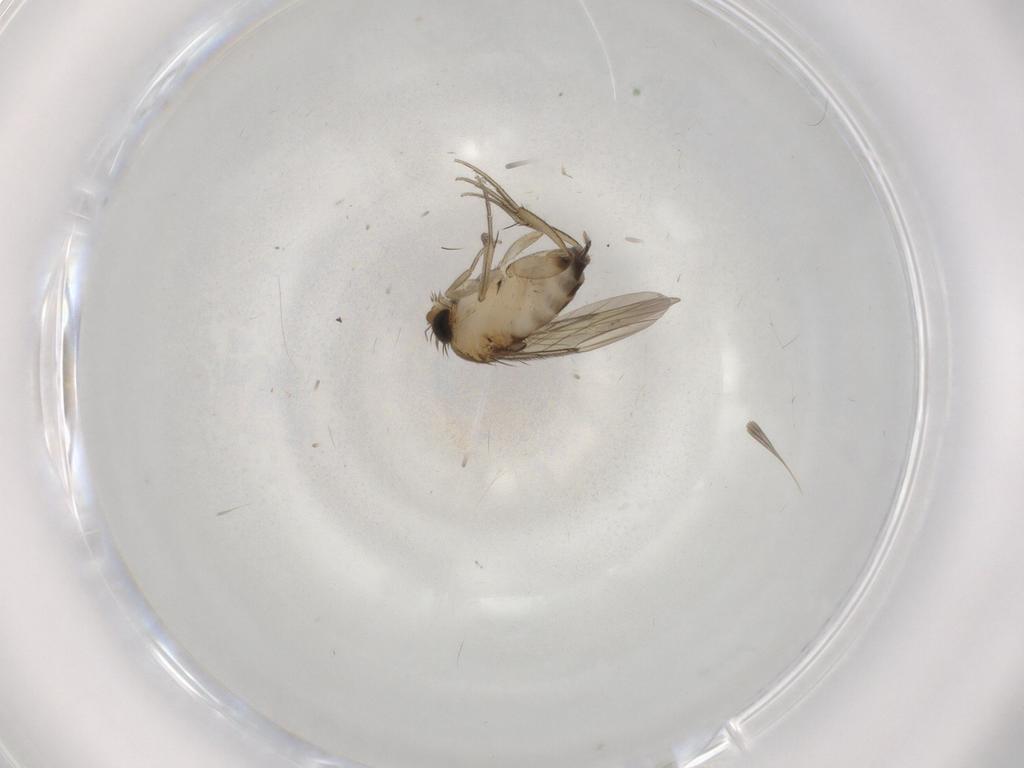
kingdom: Animalia
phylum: Arthropoda
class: Insecta
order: Diptera
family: Phoridae
